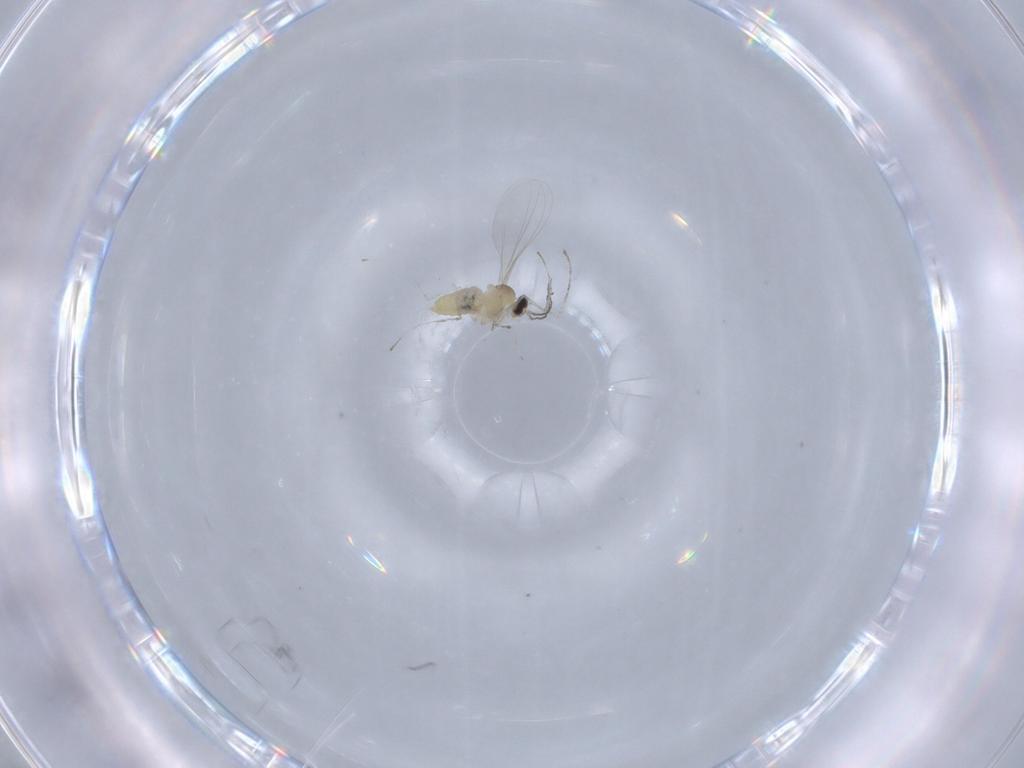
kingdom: Animalia
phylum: Arthropoda
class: Insecta
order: Diptera
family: Cecidomyiidae
